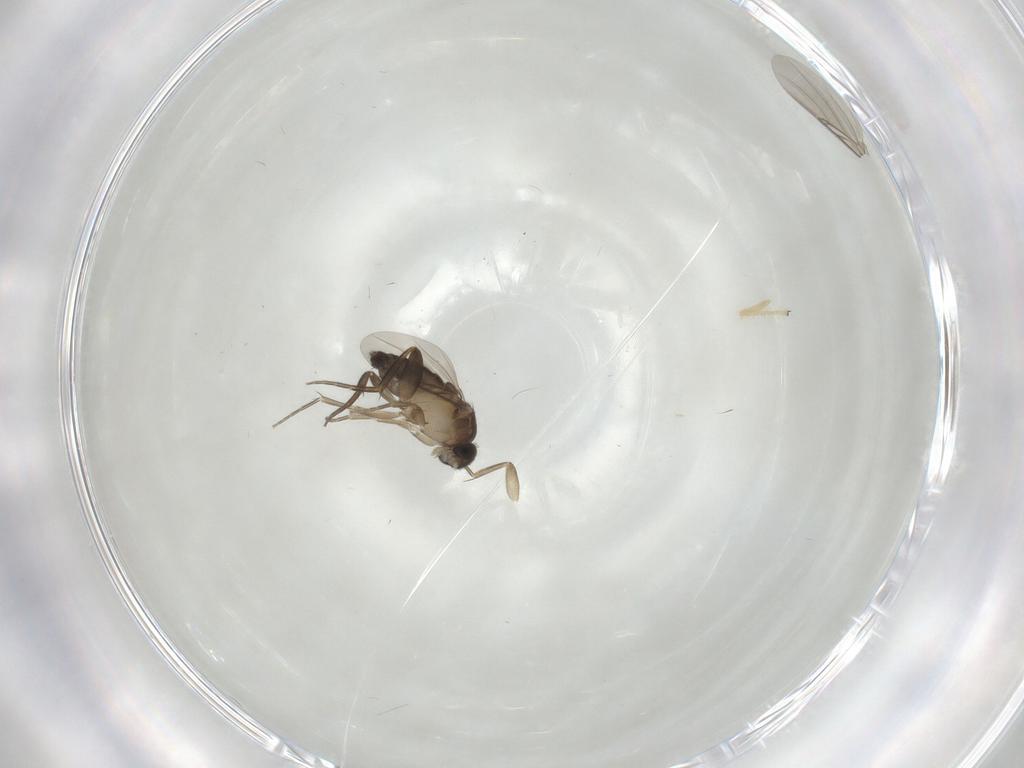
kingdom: Animalia
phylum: Arthropoda
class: Insecta
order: Diptera
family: Phoridae
